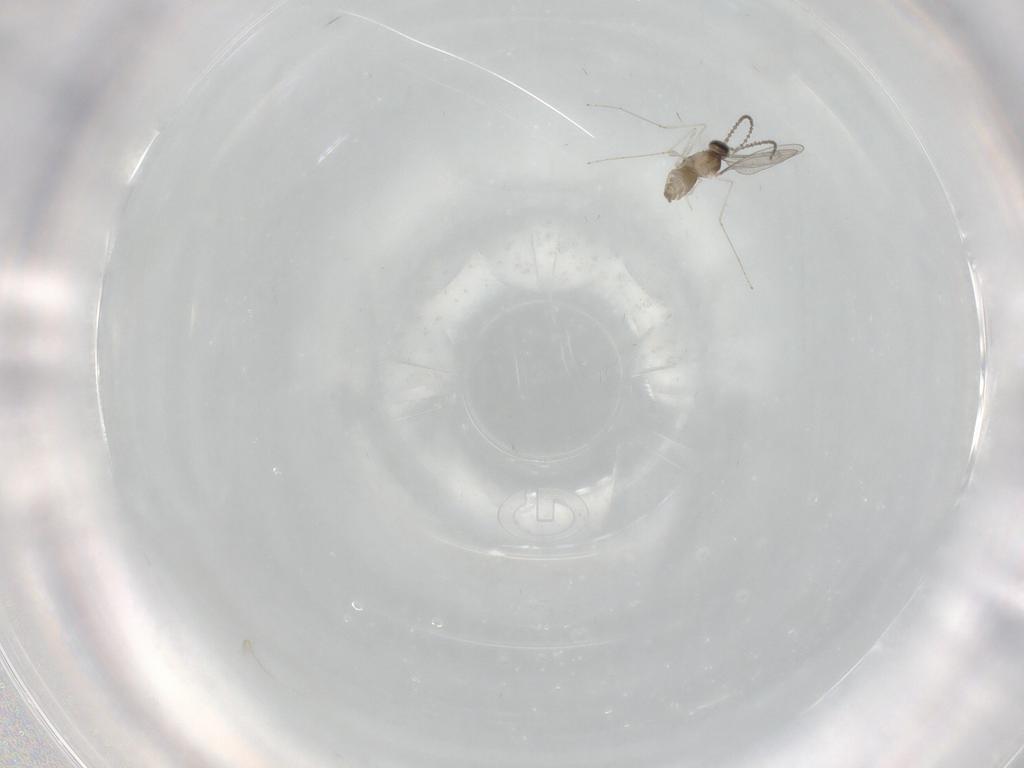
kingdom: Animalia
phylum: Arthropoda
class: Insecta
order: Diptera
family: Cecidomyiidae
